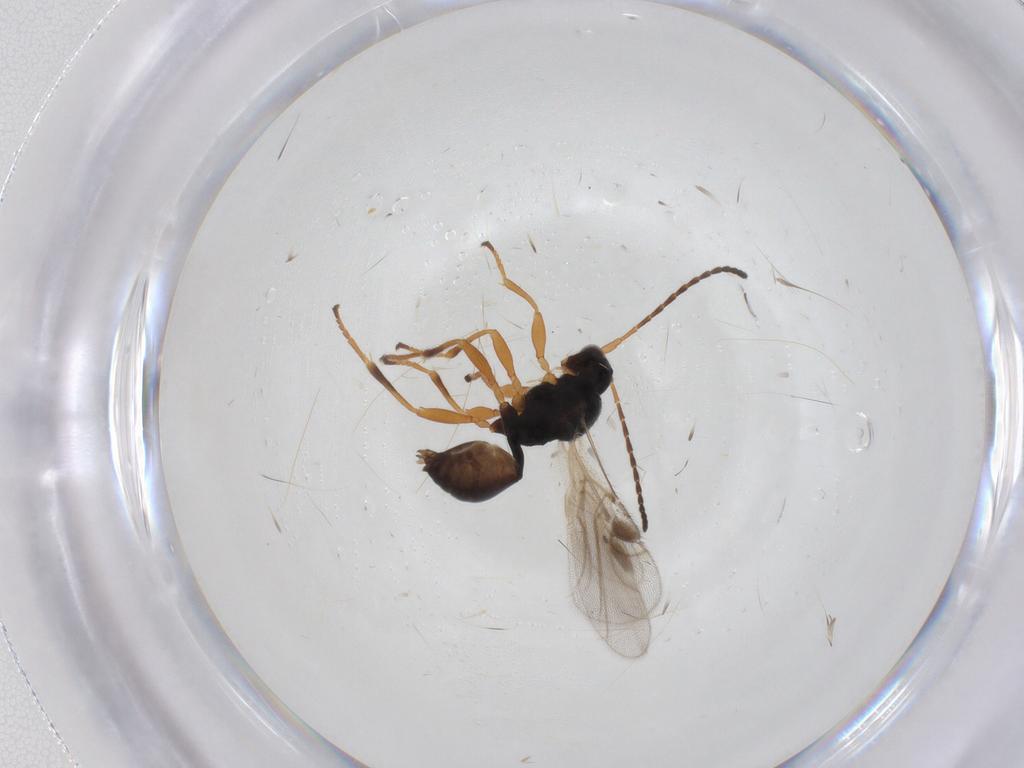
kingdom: Animalia
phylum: Arthropoda
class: Insecta
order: Hymenoptera
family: Braconidae
